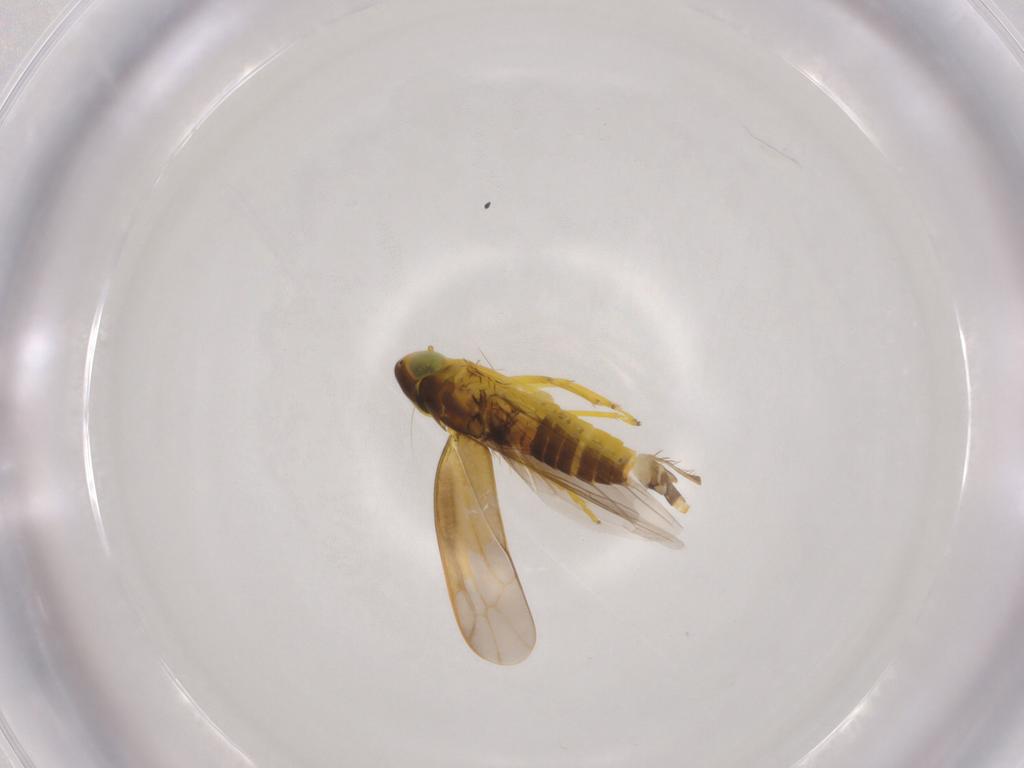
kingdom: Animalia
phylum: Arthropoda
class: Insecta
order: Hemiptera
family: Cicadellidae
